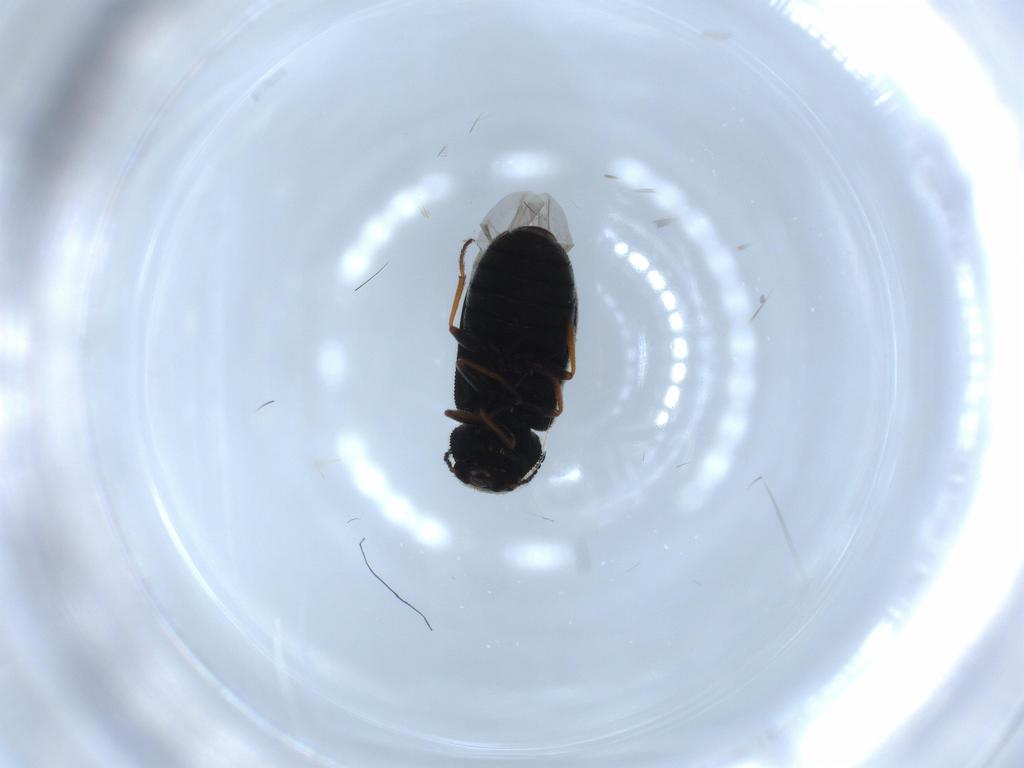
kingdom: Animalia
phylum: Arthropoda
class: Insecta
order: Coleoptera
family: Melyridae
